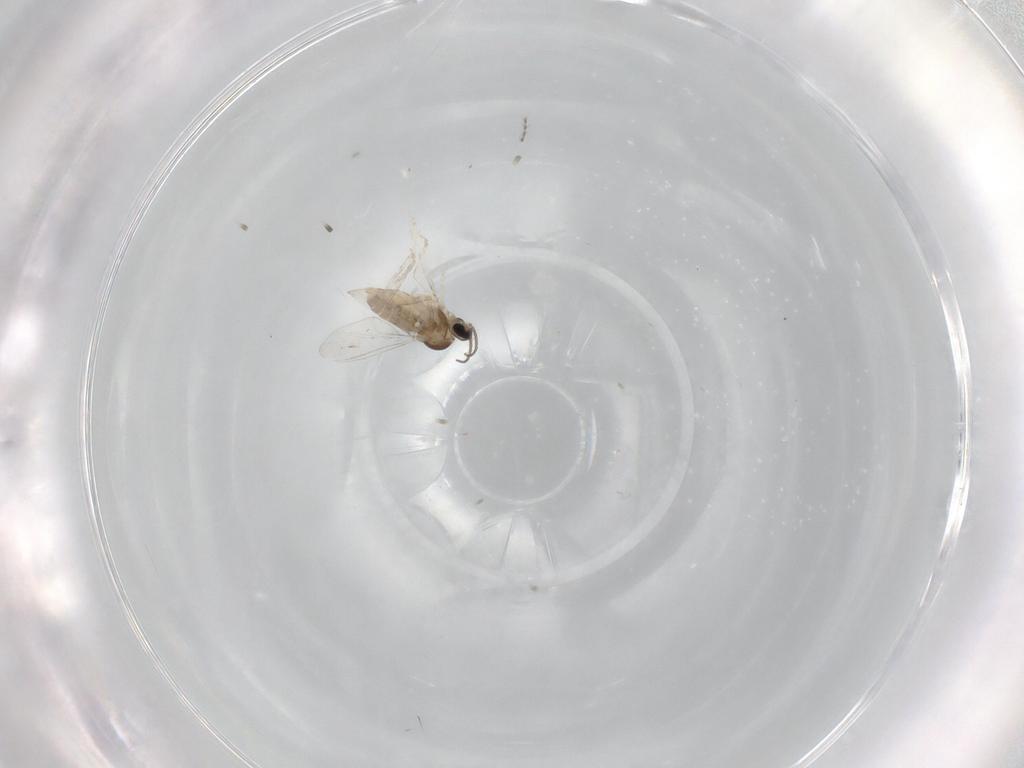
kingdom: Animalia
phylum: Arthropoda
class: Insecta
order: Diptera
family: Cecidomyiidae
